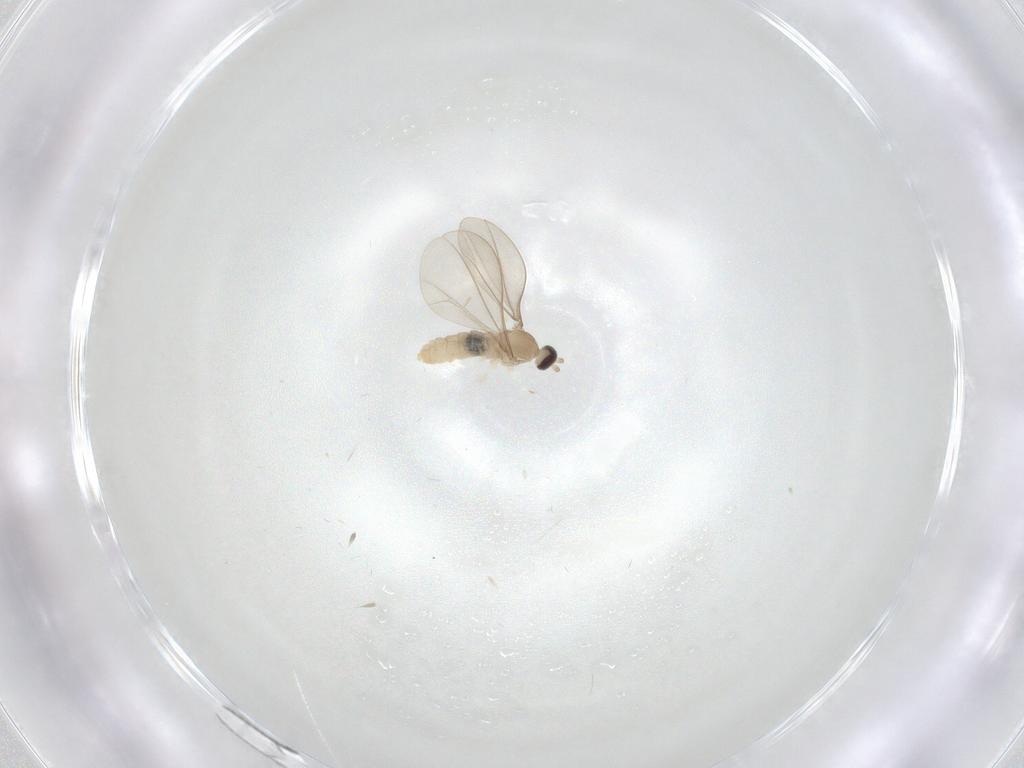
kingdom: Animalia
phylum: Arthropoda
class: Insecta
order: Diptera
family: Cecidomyiidae
